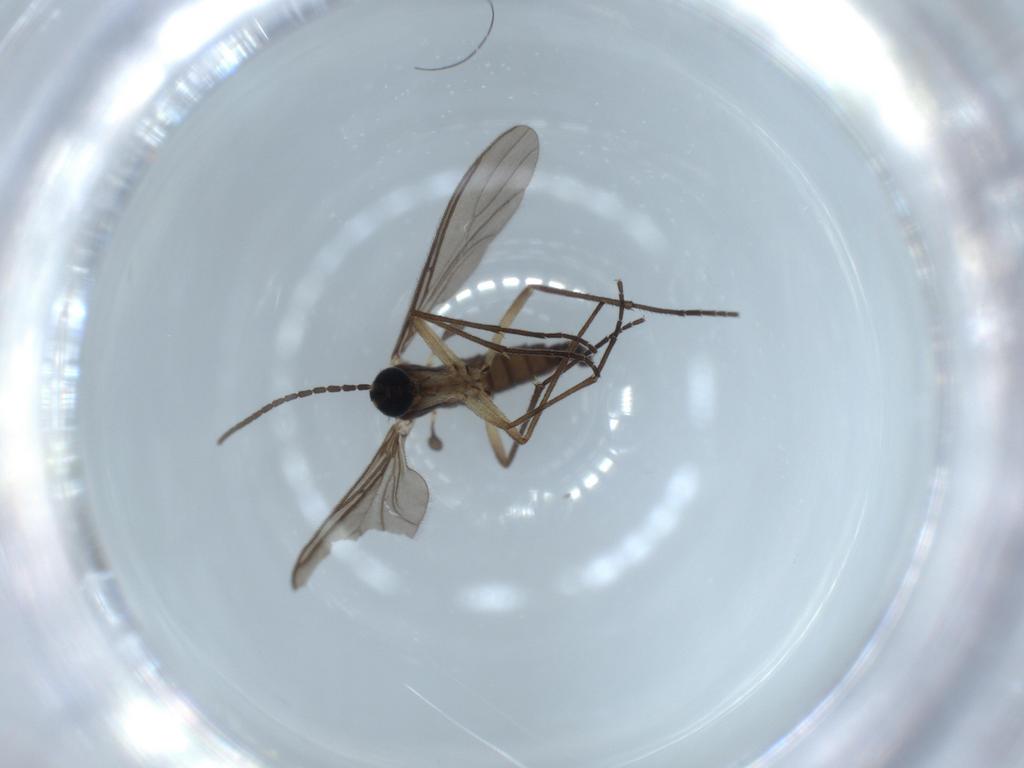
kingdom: Animalia
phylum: Arthropoda
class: Insecta
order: Diptera
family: Sciaridae
